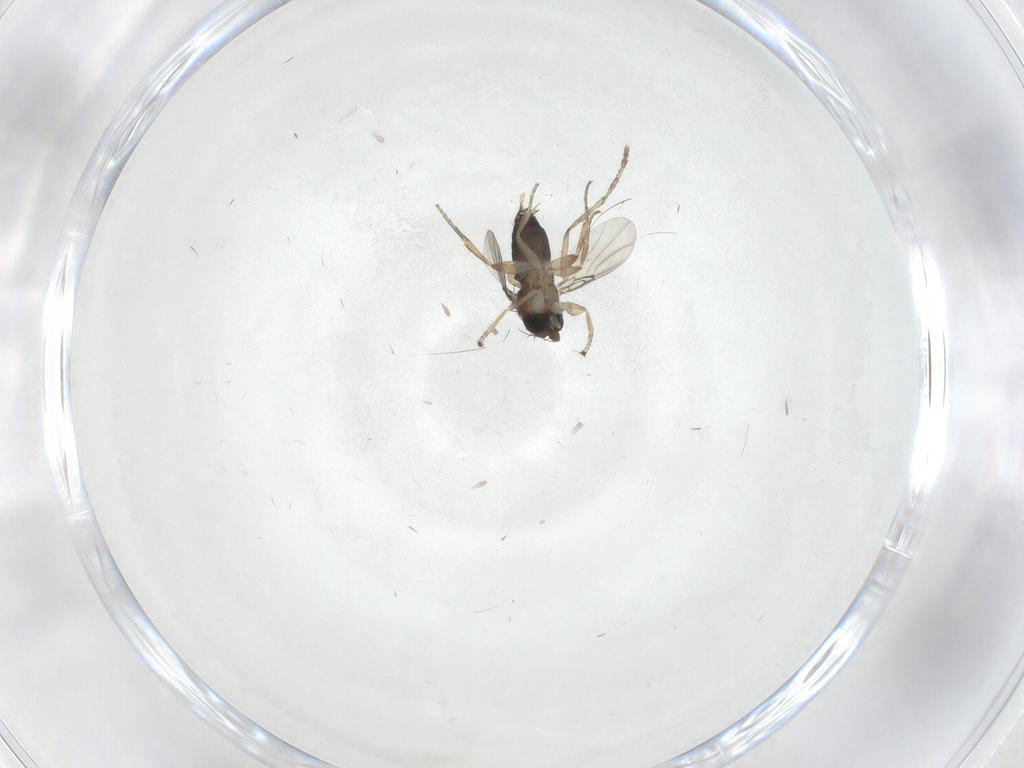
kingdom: Animalia
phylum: Arthropoda
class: Insecta
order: Diptera
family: Phoridae
